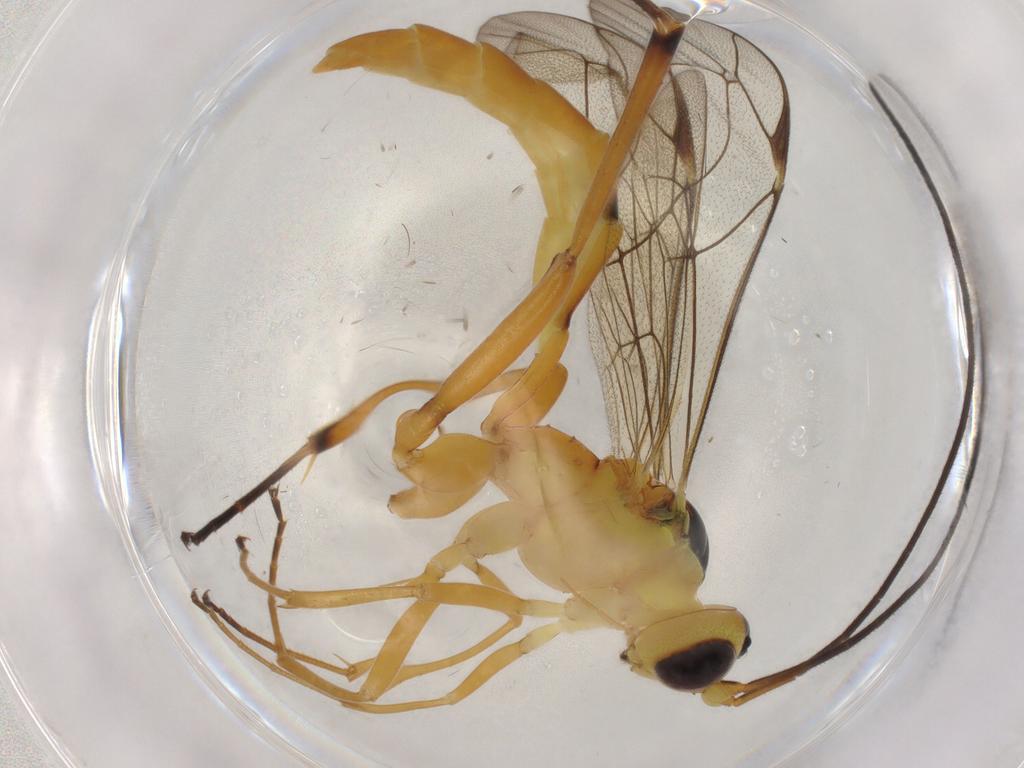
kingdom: Animalia
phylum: Arthropoda
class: Insecta
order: Hymenoptera
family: Ichneumonidae
